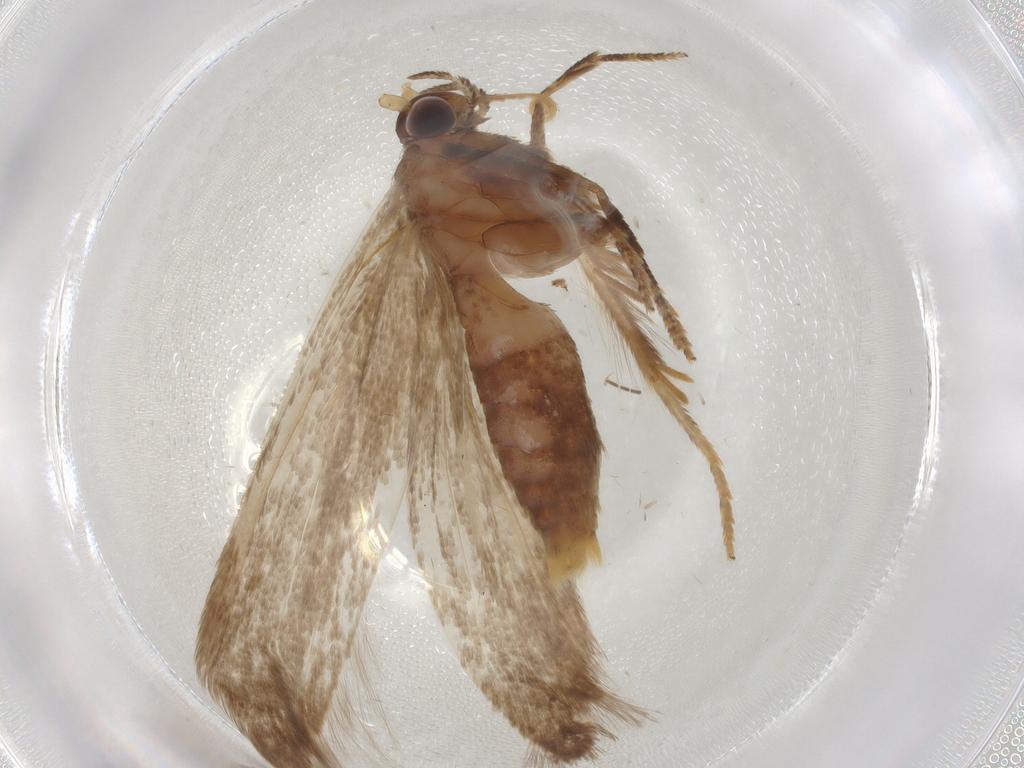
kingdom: Animalia
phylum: Arthropoda
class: Insecta
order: Lepidoptera
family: Coleophoridae
